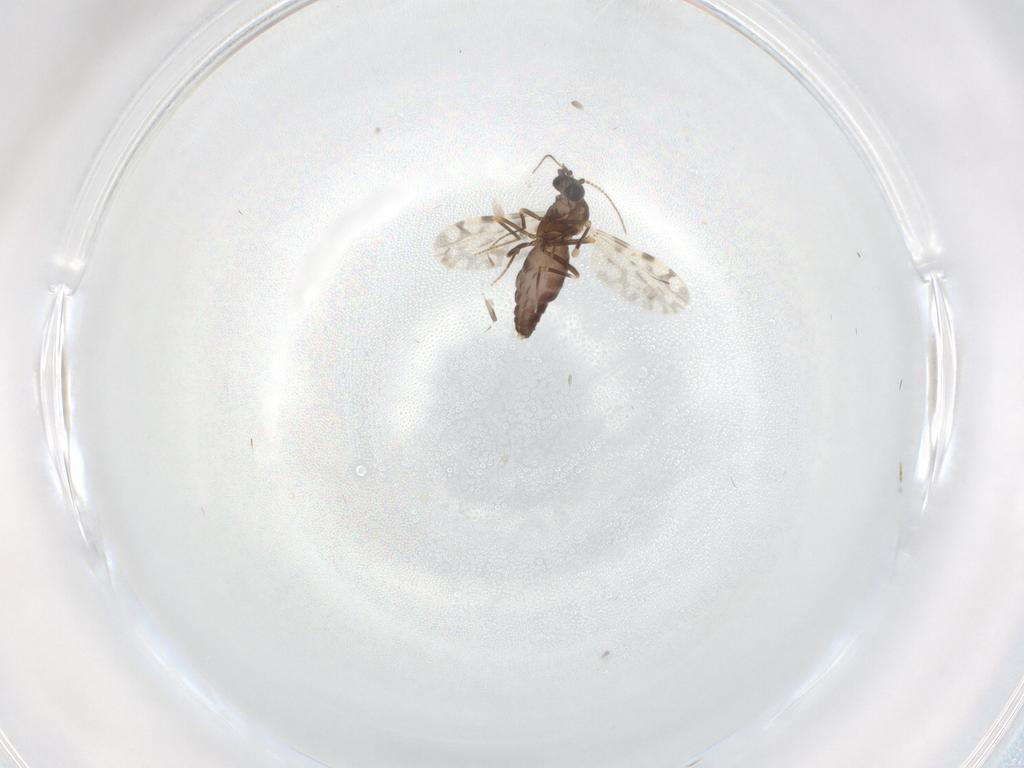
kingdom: Animalia
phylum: Arthropoda
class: Insecta
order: Diptera
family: Ceratopogonidae
